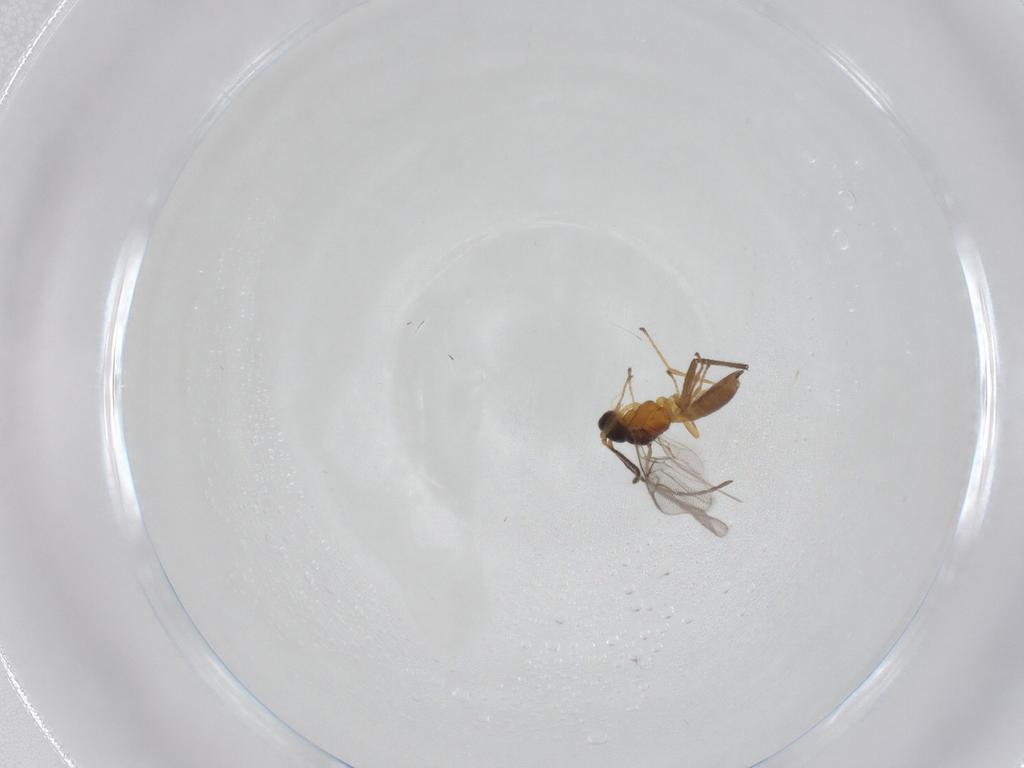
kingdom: Animalia
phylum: Arthropoda
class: Insecta
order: Hymenoptera
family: Braconidae
